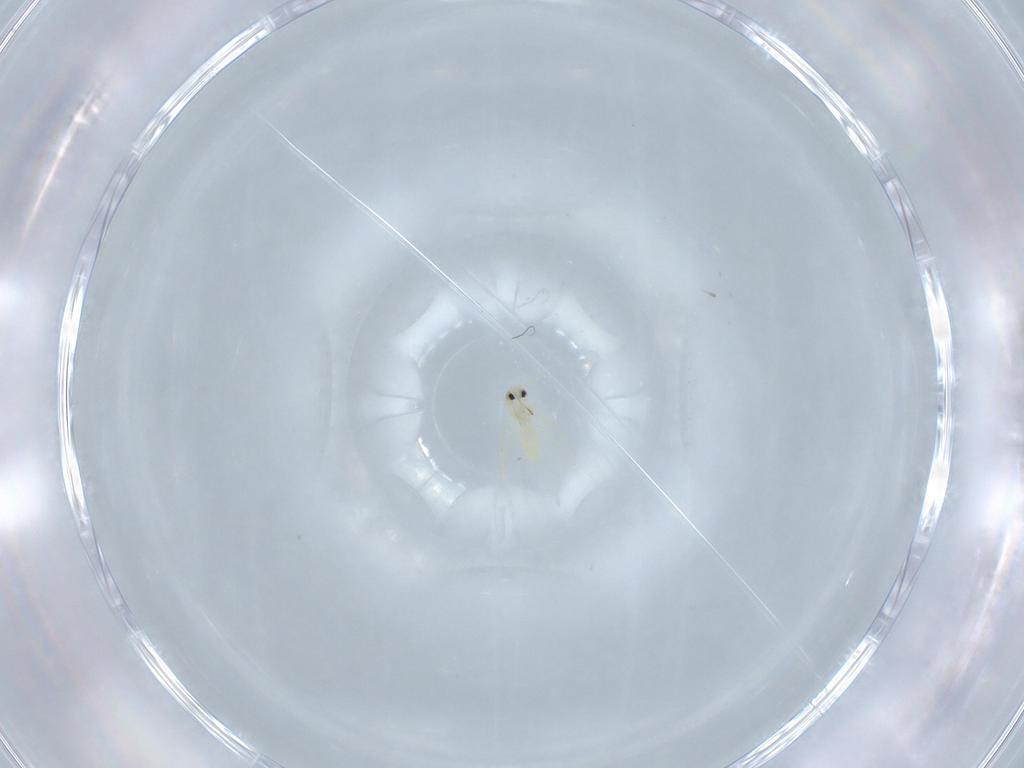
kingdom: Animalia
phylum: Arthropoda
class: Insecta
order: Hemiptera
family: Aleyrodidae
